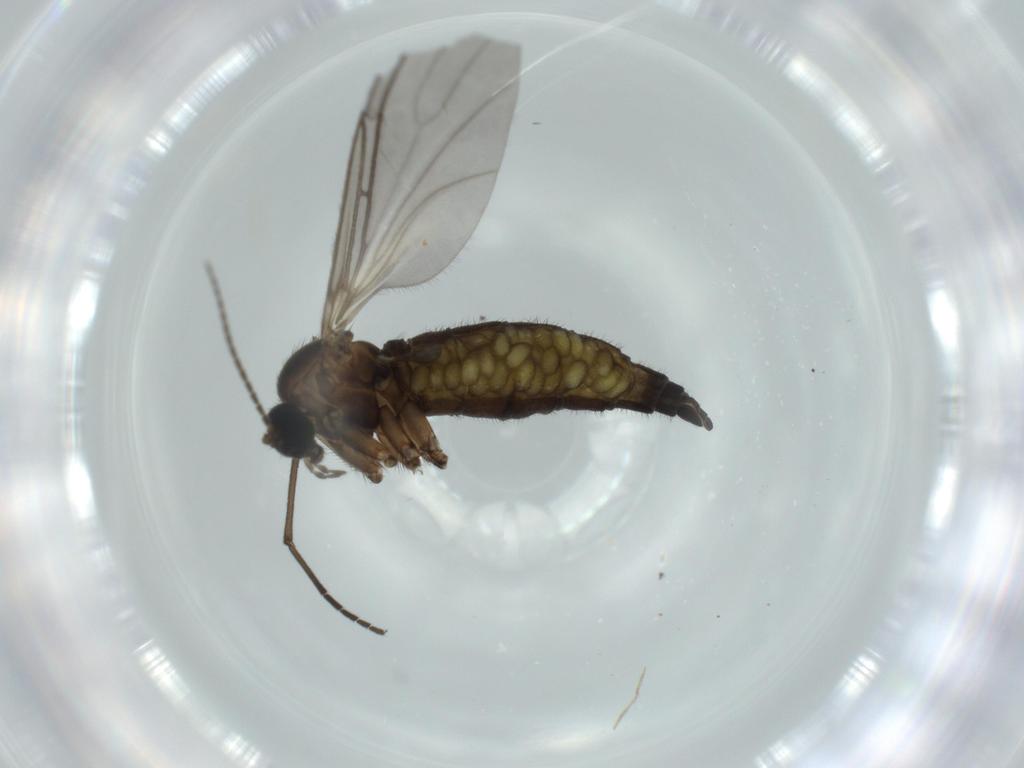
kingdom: Animalia
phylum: Arthropoda
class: Insecta
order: Diptera
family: Sciaridae
